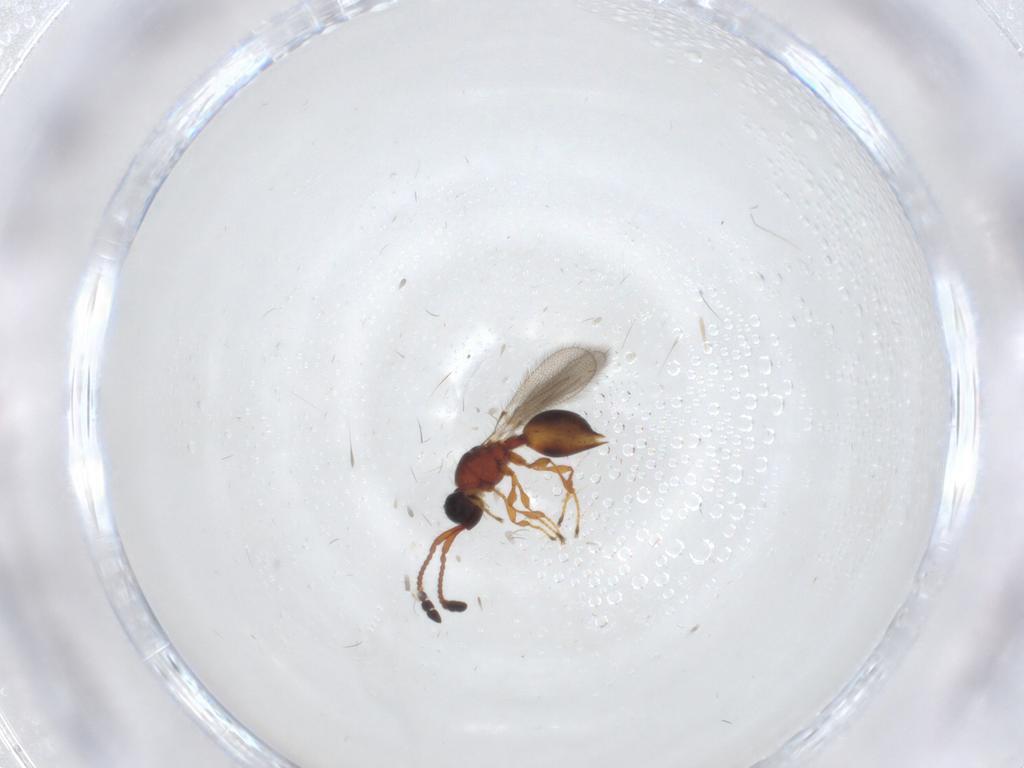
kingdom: Animalia
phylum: Arthropoda
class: Insecta
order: Hymenoptera
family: Diapriidae
